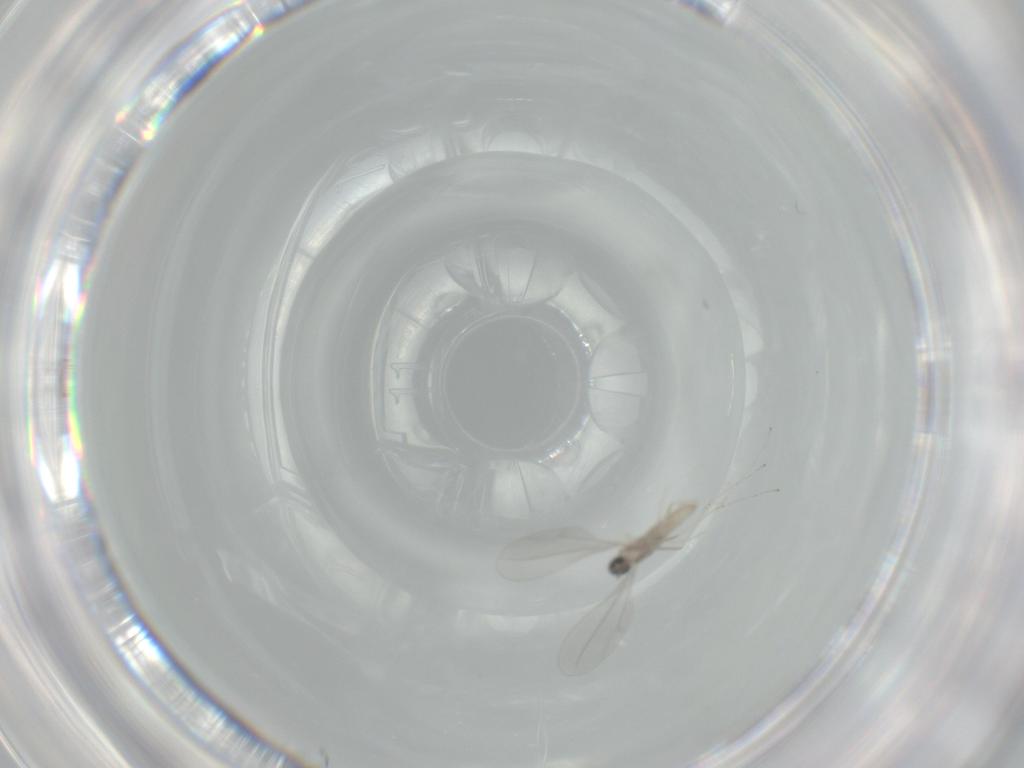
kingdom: Animalia
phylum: Arthropoda
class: Insecta
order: Diptera
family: Cecidomyiidae
